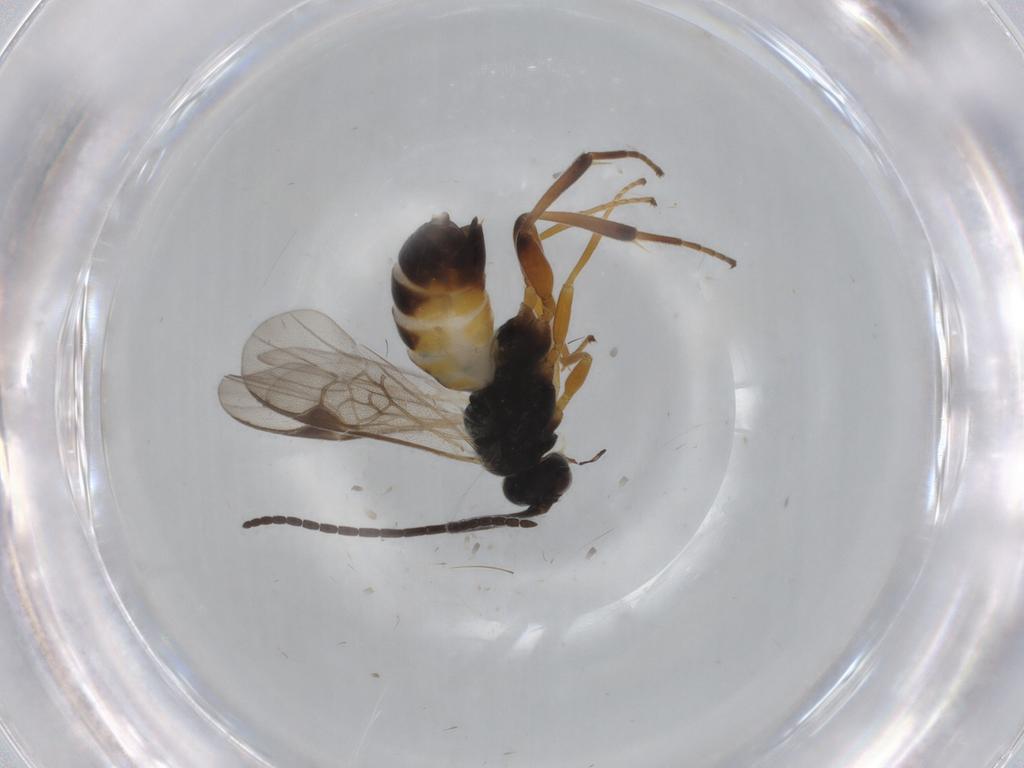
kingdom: Animalia
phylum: Arthropoda
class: Insecta
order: Hymenoptera
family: Braconidae
